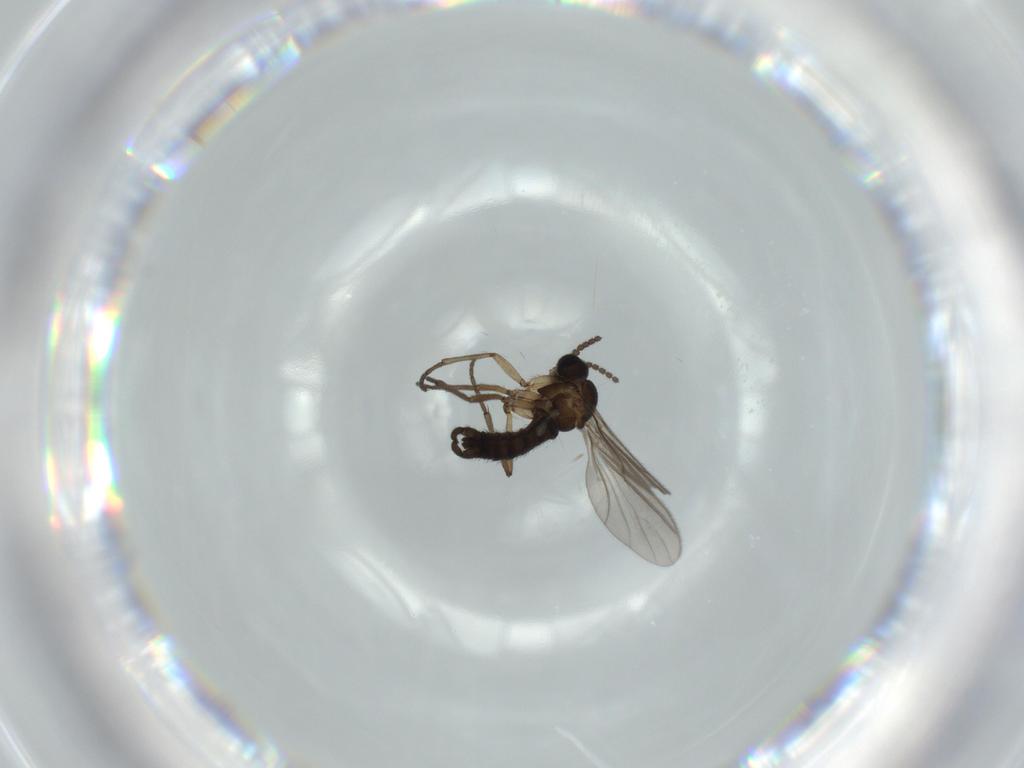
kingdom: Animalia
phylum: Arthropoda
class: Insecta
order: Diptera
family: Sciaridae
